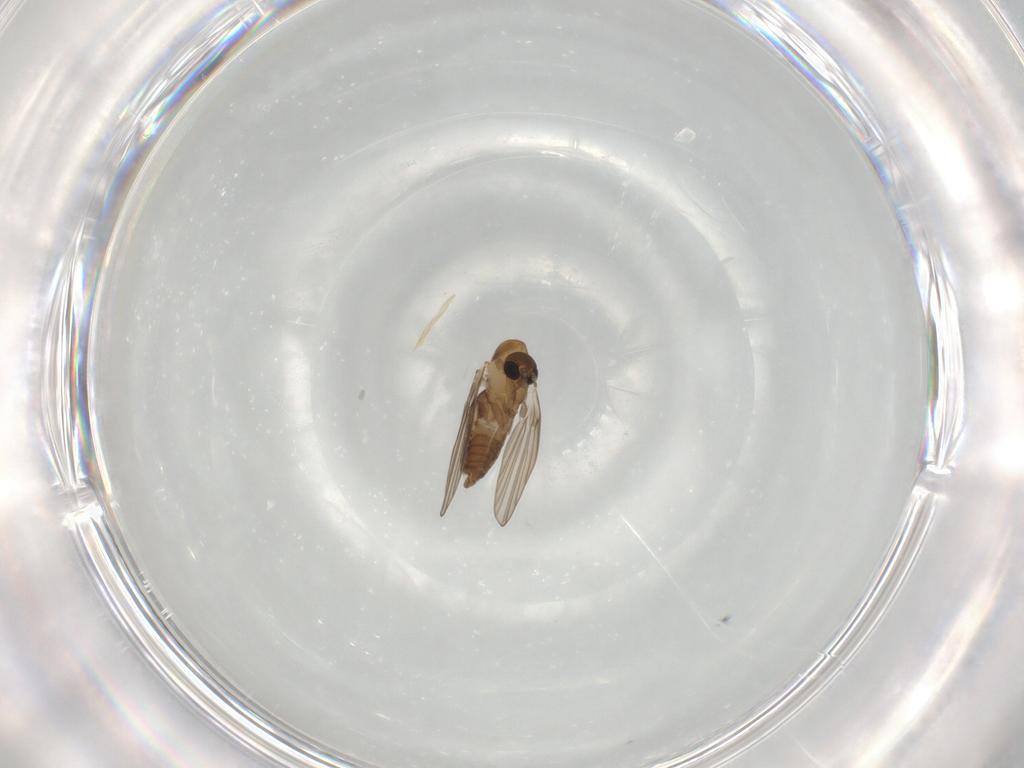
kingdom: Animalia
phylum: Arthropoda
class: Insecta
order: Diptera
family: Psychodidae
